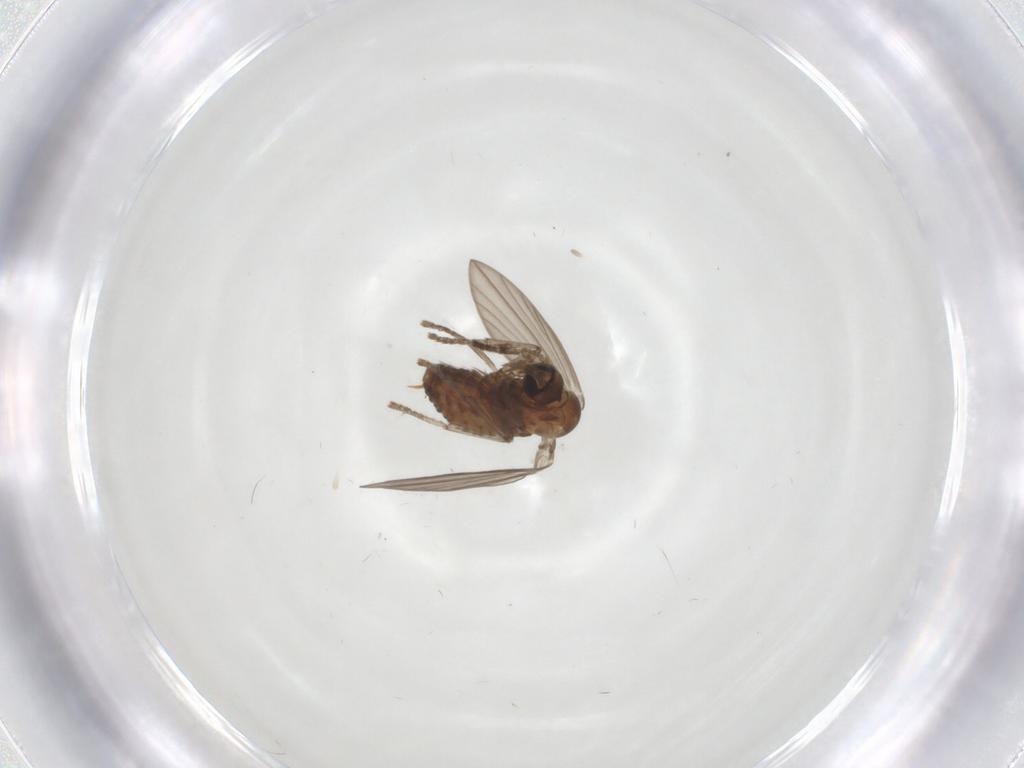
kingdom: Animalia
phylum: Arthropoda
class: Insecta
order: Diptera
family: Psychodidae
